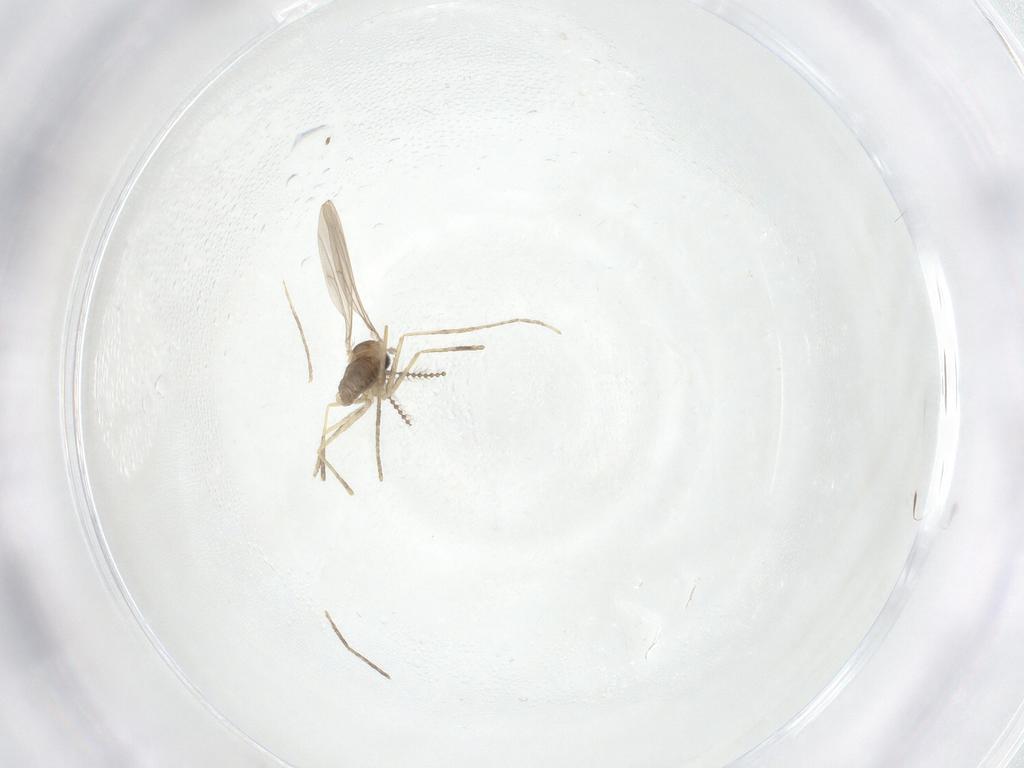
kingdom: Animalia
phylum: Arthropoda
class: Insecta
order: Diptera
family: Cecidomyiidae
